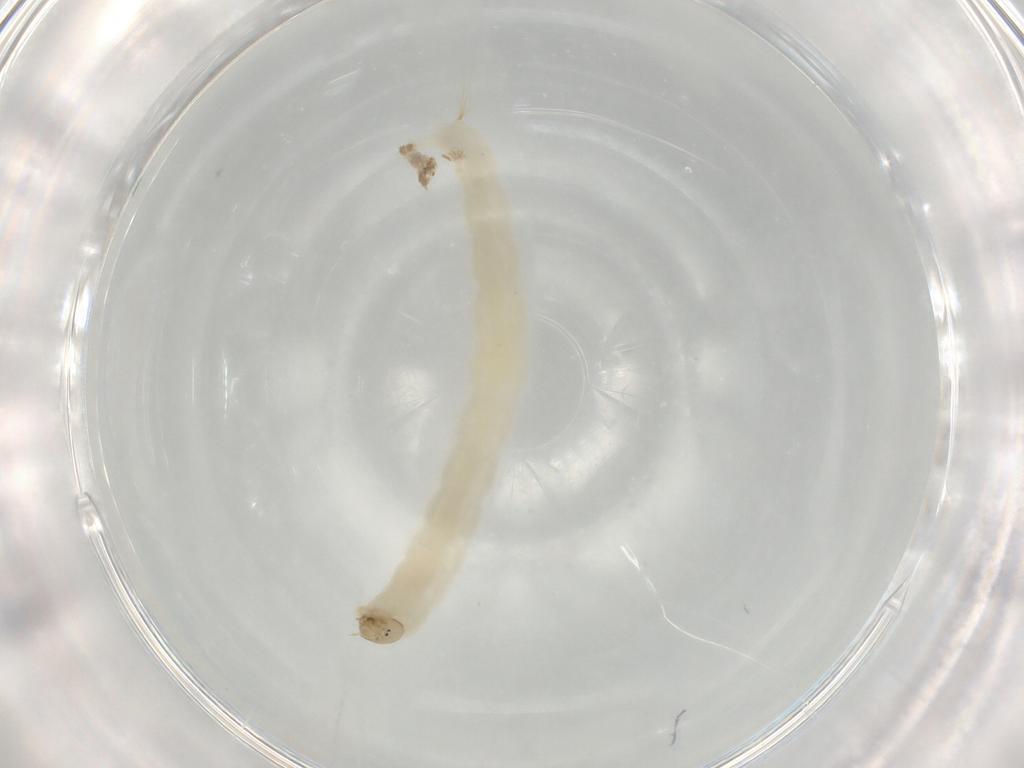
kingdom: Animalia
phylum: Arthropoda
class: Insecta
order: Diptera
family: Chironomidae
